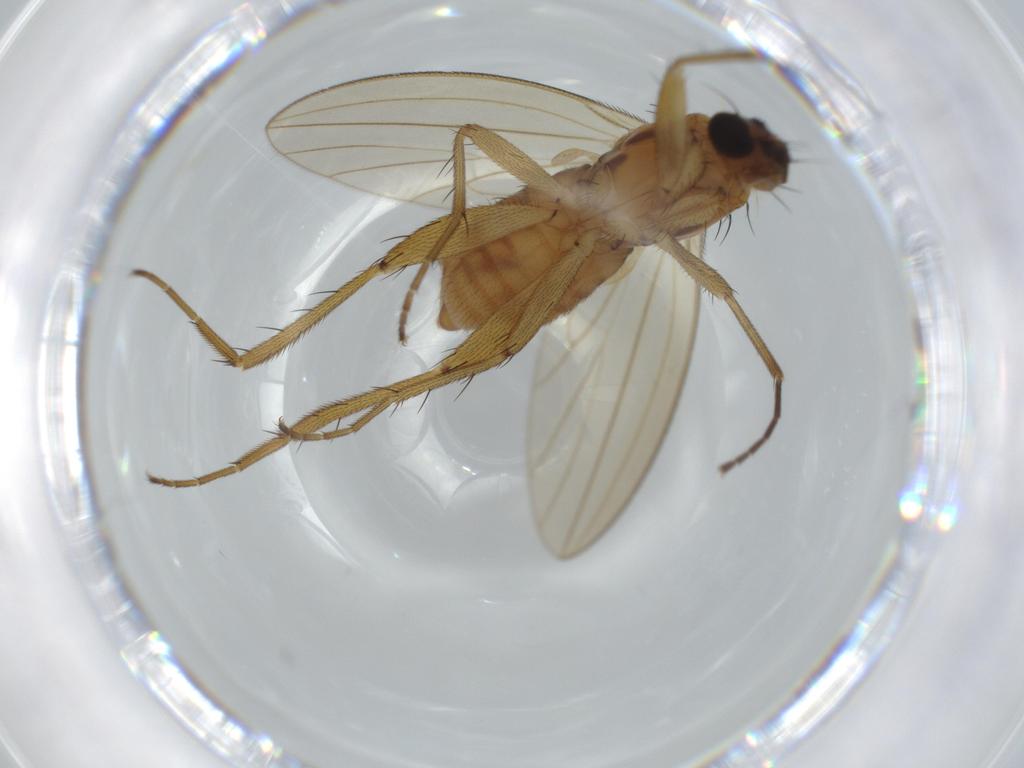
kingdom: Animalia
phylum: Arthropoda
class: Insecta
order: Diptera
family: Lonchopteridae
